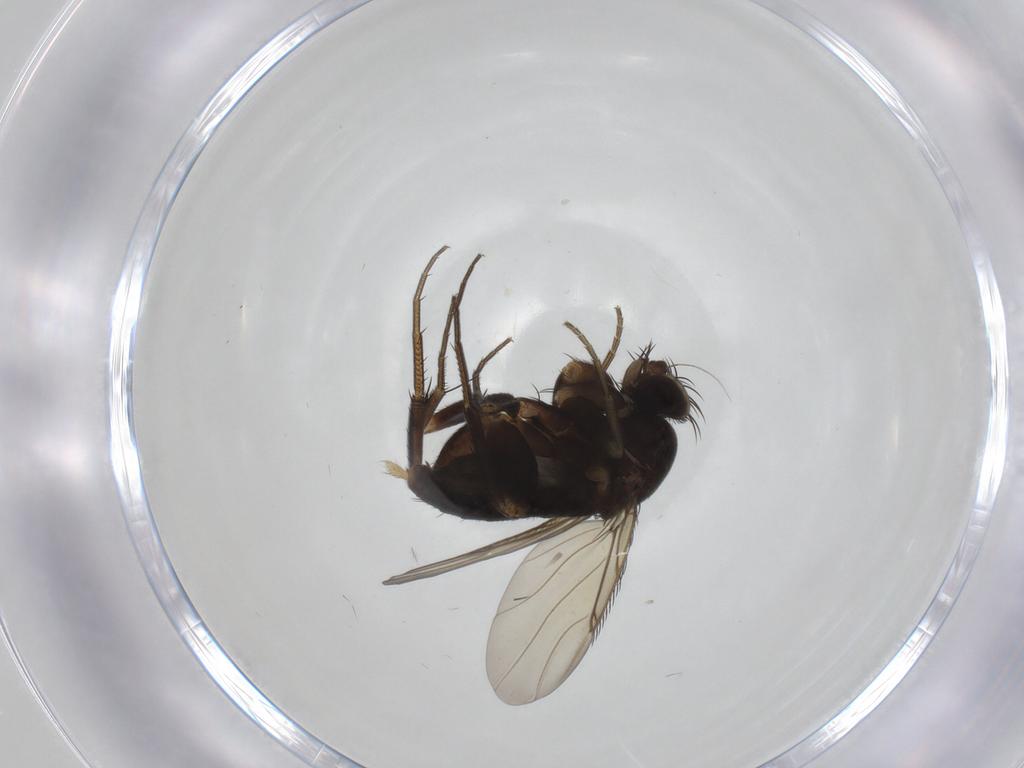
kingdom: Animalia
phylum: Arthropoda
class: Insecta
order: Diptera
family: Phoridae
